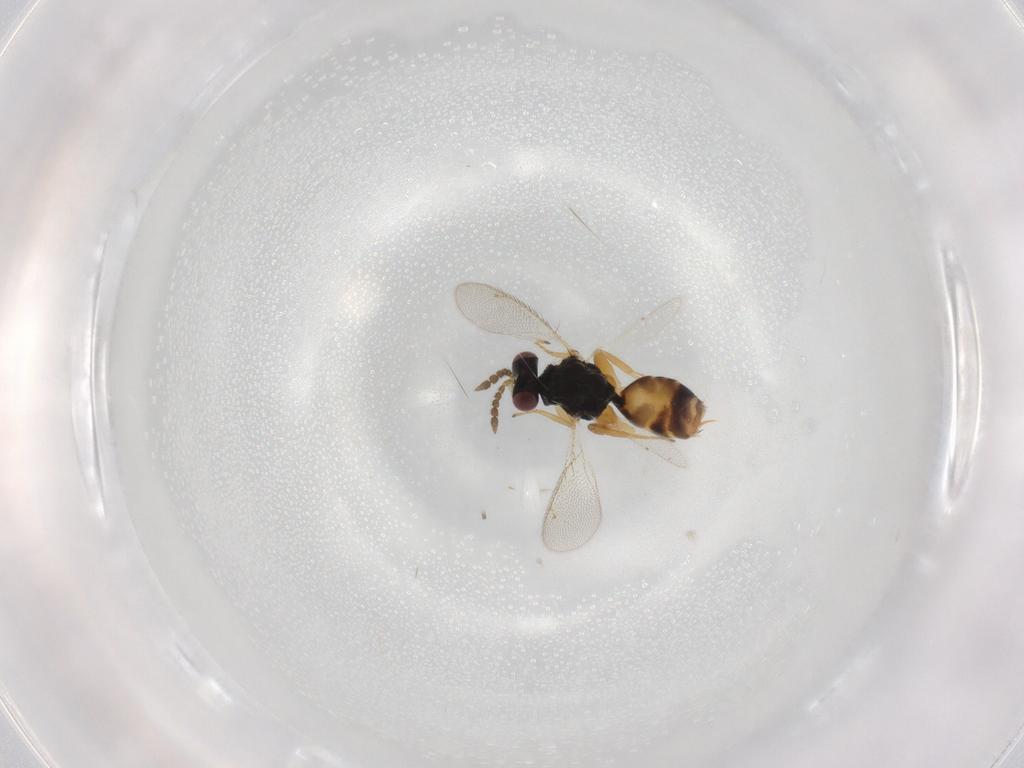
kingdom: Animalia
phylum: Arthropoda
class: Insecta
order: Hymenoptera
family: Eulophidae
